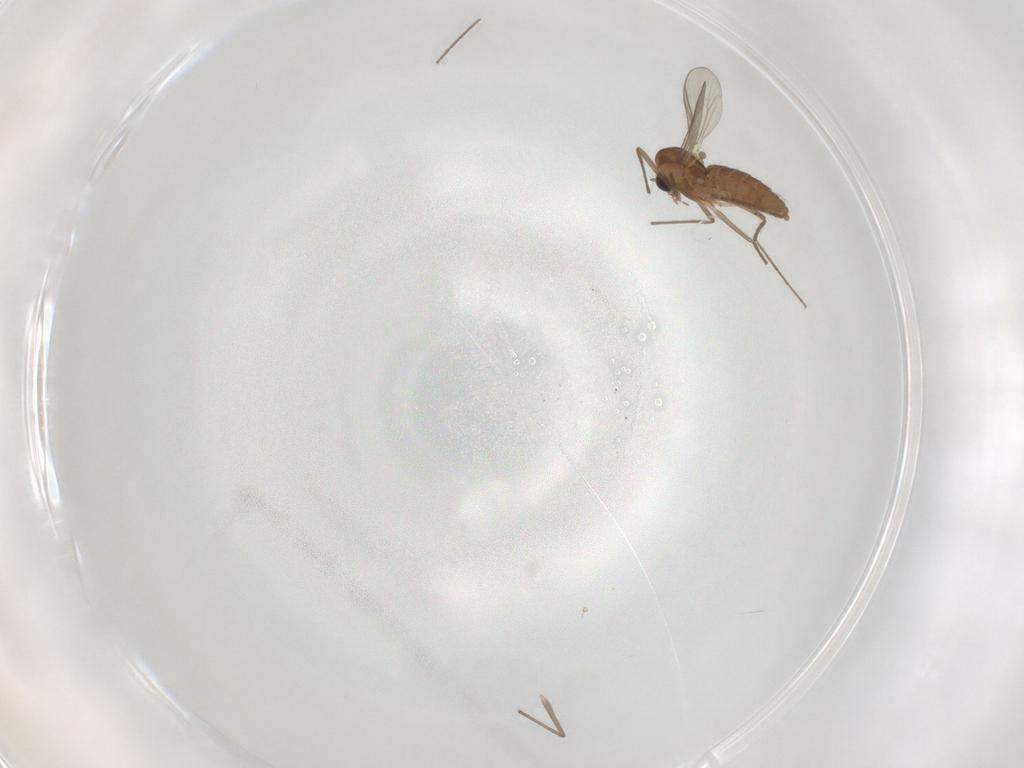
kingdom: Animalia
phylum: Arthropoda
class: Insecta
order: Diptera
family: Chironomidae
